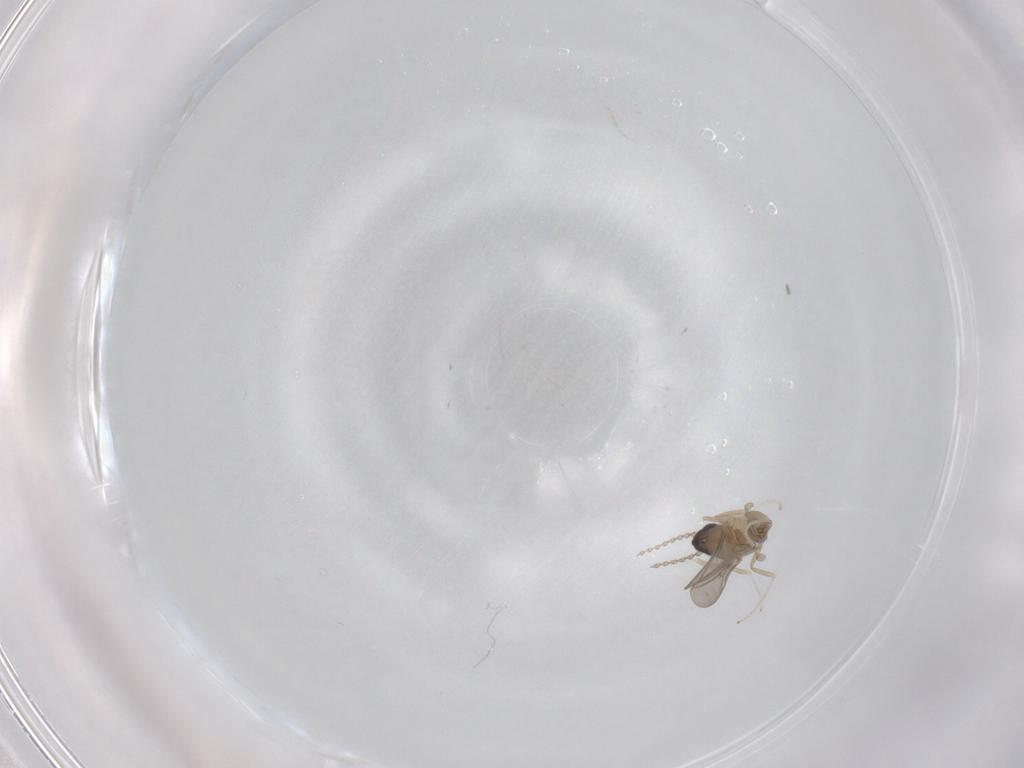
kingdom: Animalia
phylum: Arthropoda
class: Insecta
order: Diptera
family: Cecidomyiidae
